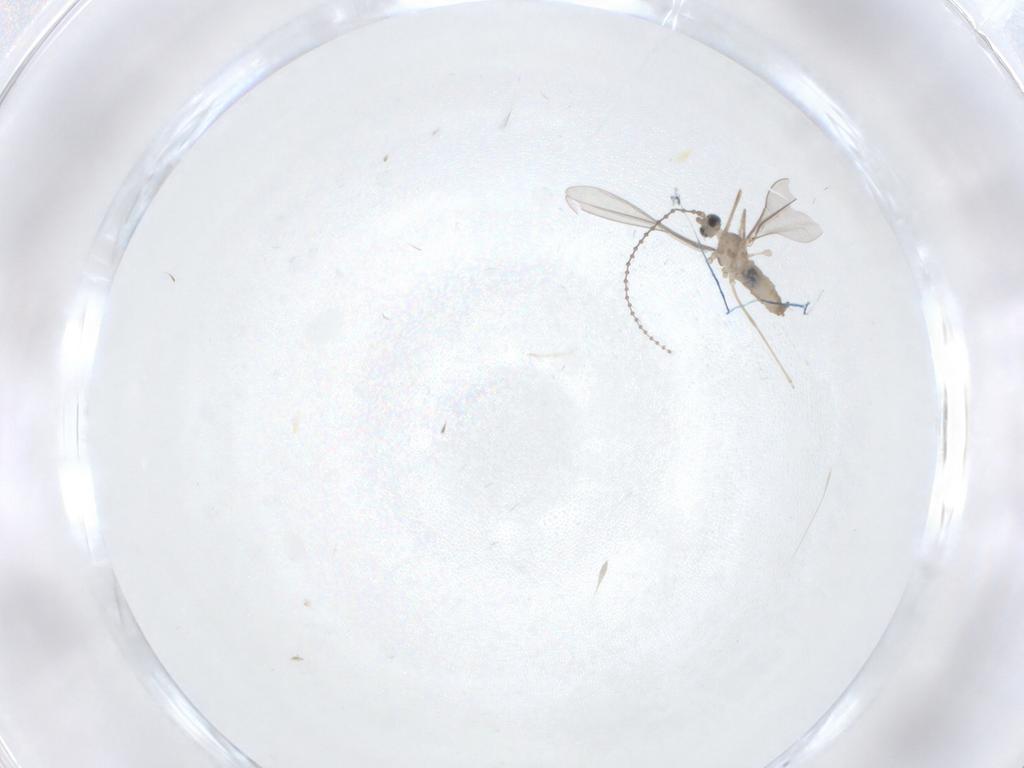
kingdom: Animalia
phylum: Arthropoda
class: Insecta
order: Diptera
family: Cecidomyiidae
